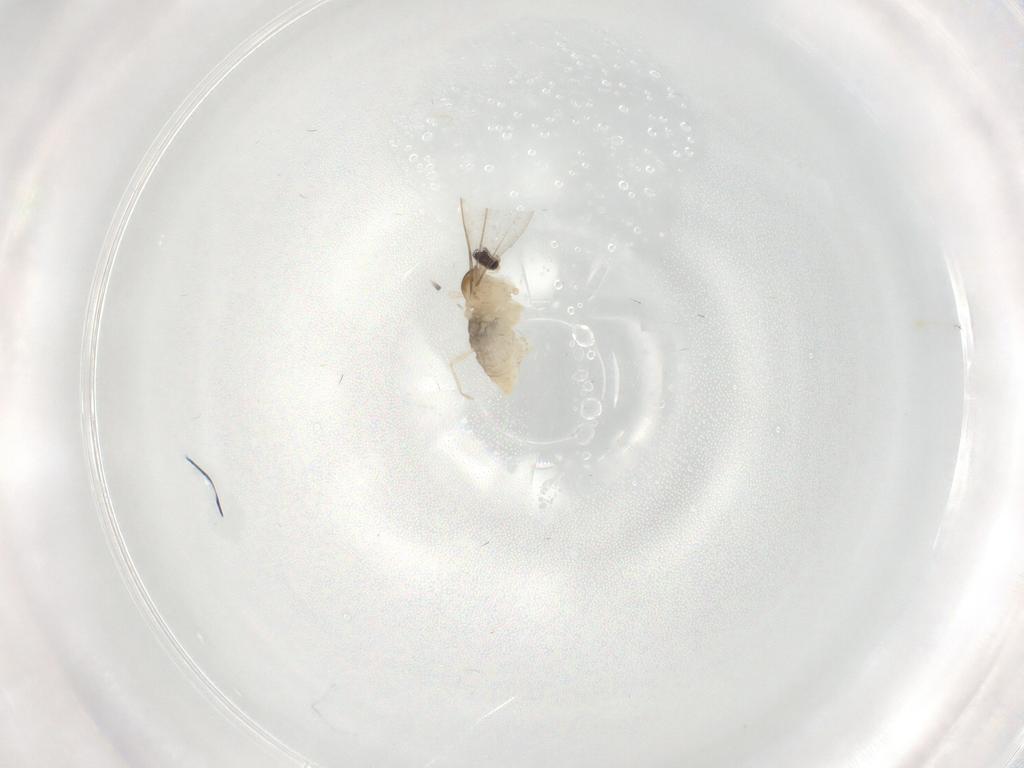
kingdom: Animalia
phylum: Arthropoda
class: Insecta
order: Diptera
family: Cecidomyiidae
